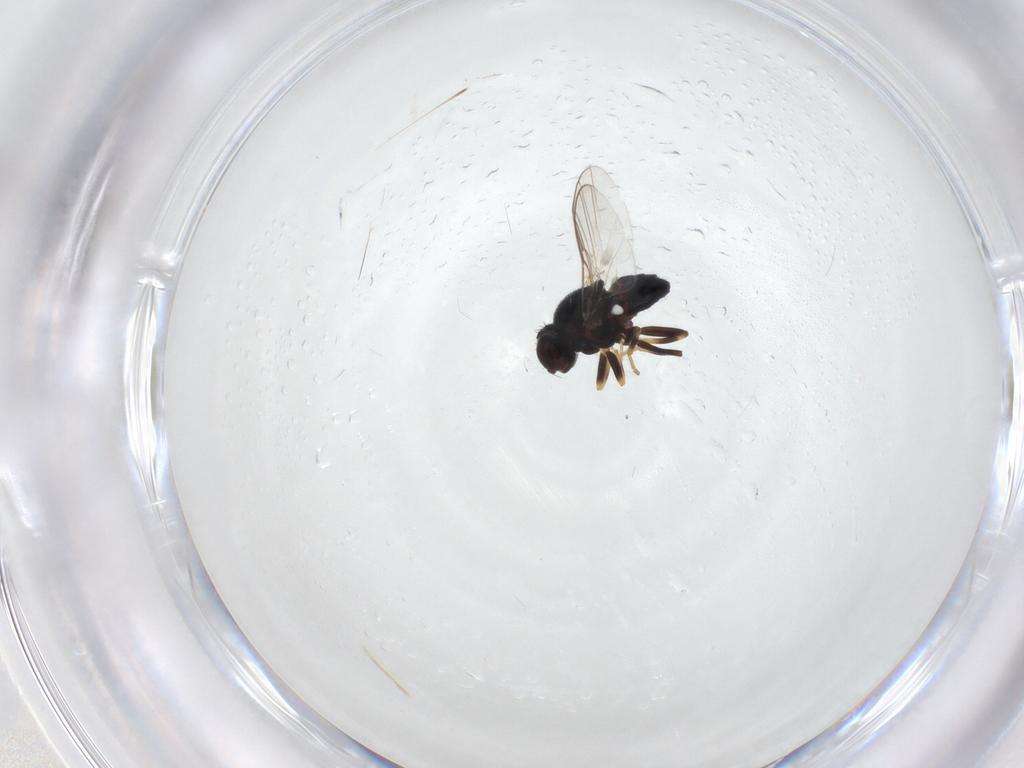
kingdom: Animalia
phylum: Arthropoda
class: Insecta
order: Diptera
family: Chloropidae
